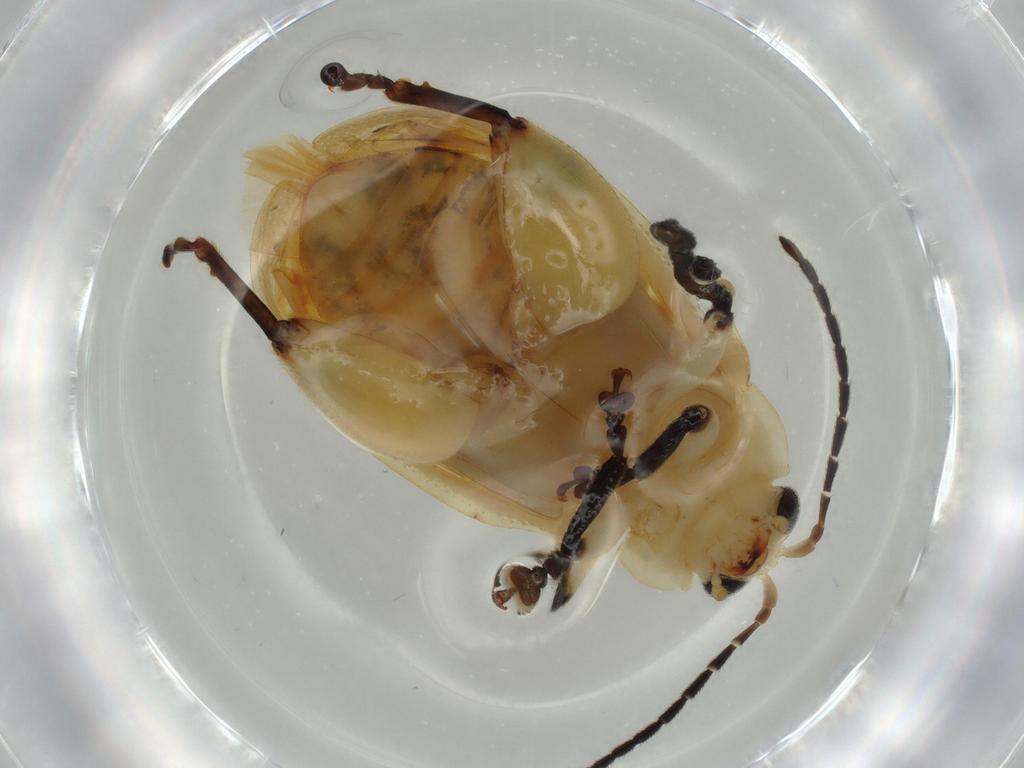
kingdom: Animalia
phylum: Arthropoda
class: Insecta
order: Coleoptera
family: Chrysomelidae
